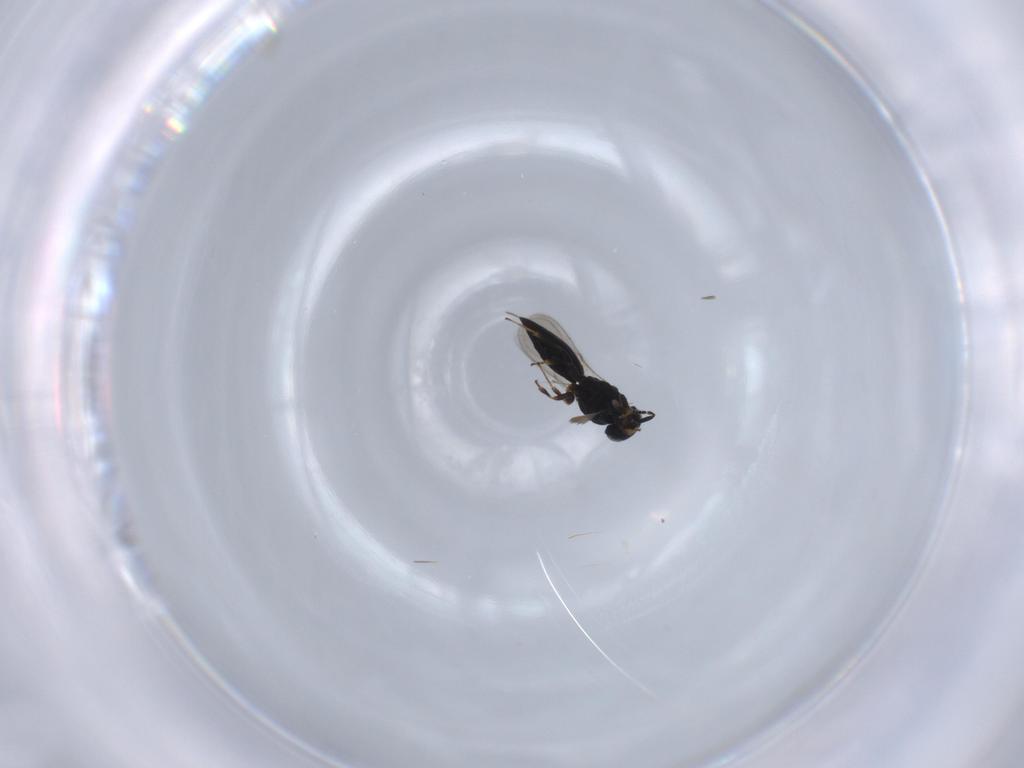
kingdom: Animalia
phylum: Arthropoda
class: Insecta
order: Hymenoptera
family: Scelionidae
